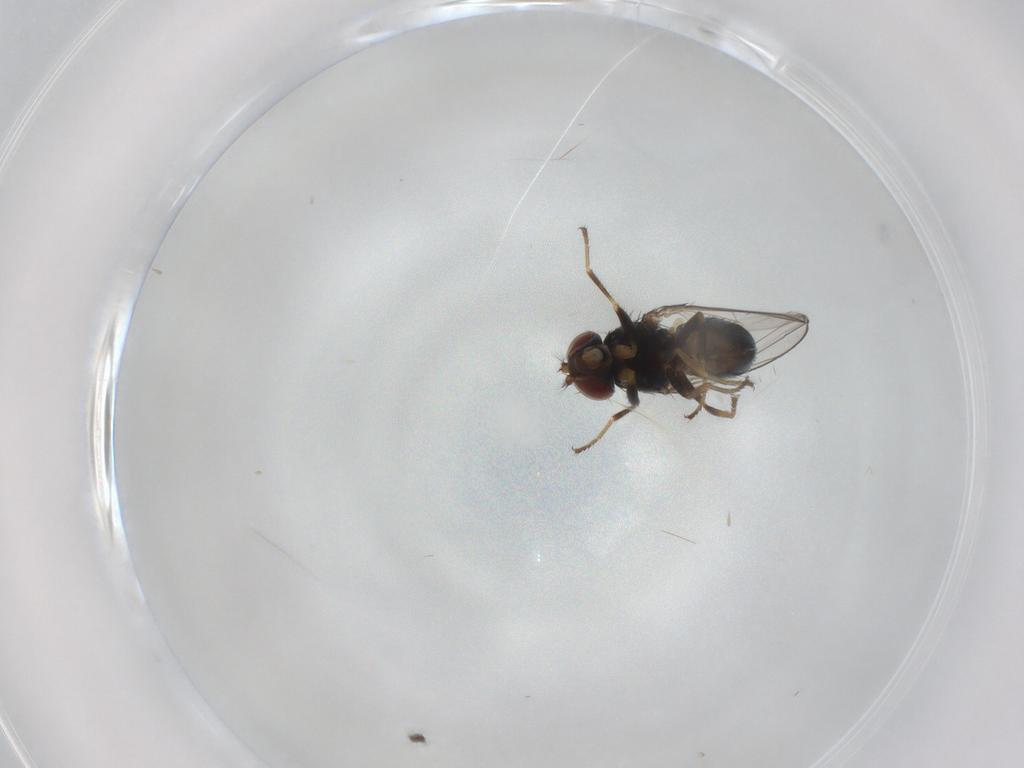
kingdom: Animalia
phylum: Arthropoda
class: Insecta
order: Diptera
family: Ephydridae
